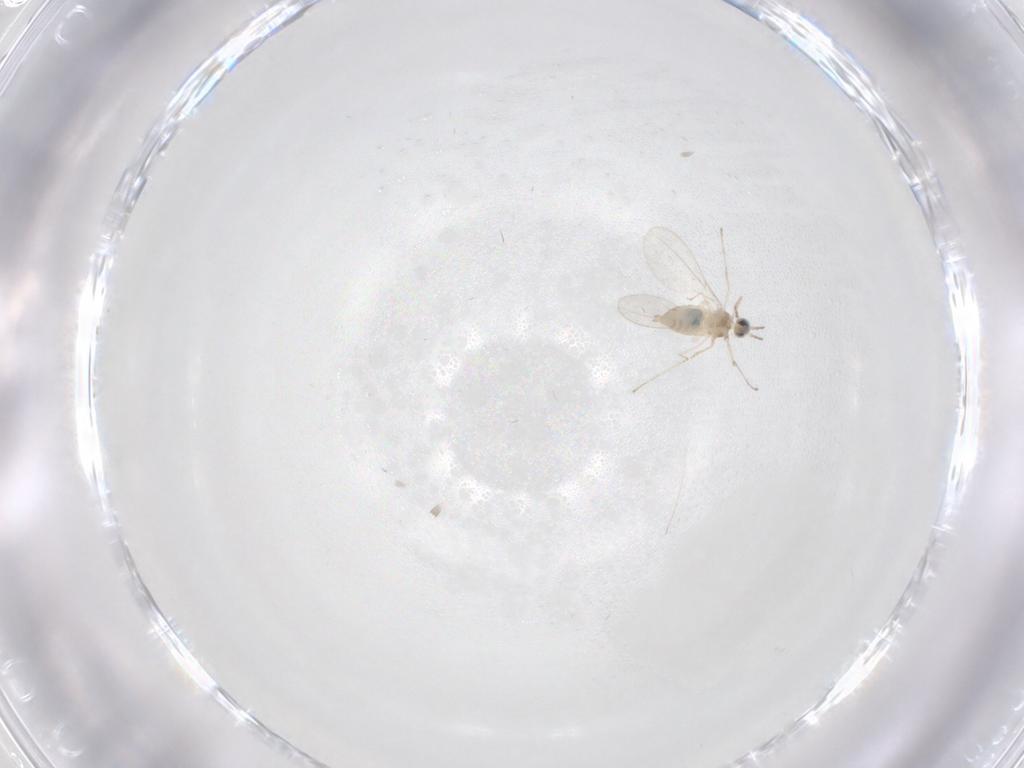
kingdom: Animalia
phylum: Arthropoda
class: Insecta
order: Diptera
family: Cecidomyiidae
